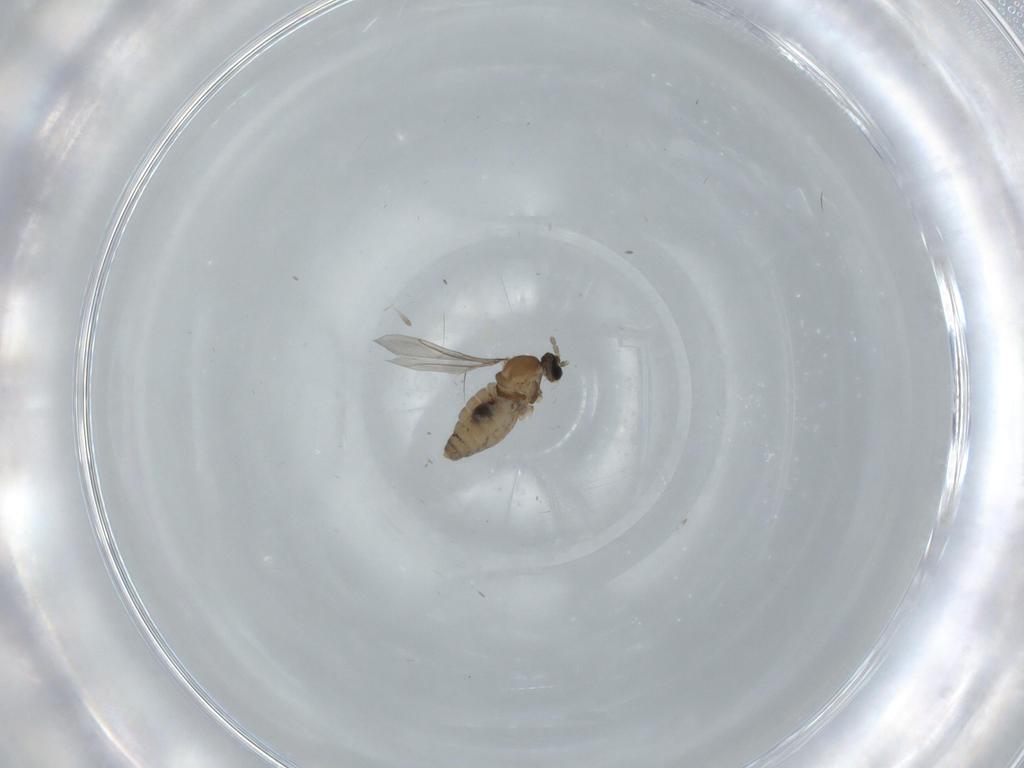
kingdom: Animalia
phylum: Arthropoda
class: Insecta
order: Diptera
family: Cecidomyiidae
